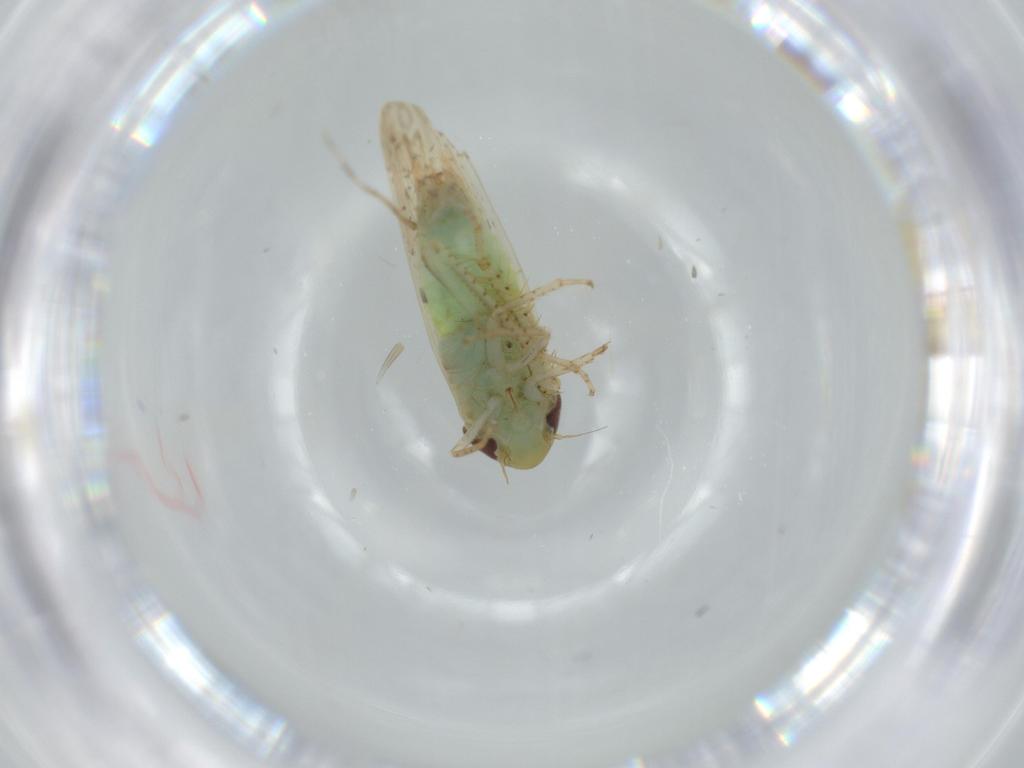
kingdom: Animalia
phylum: Arthropoda
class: Insecta
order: Hemiptera
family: Cicadellidae
